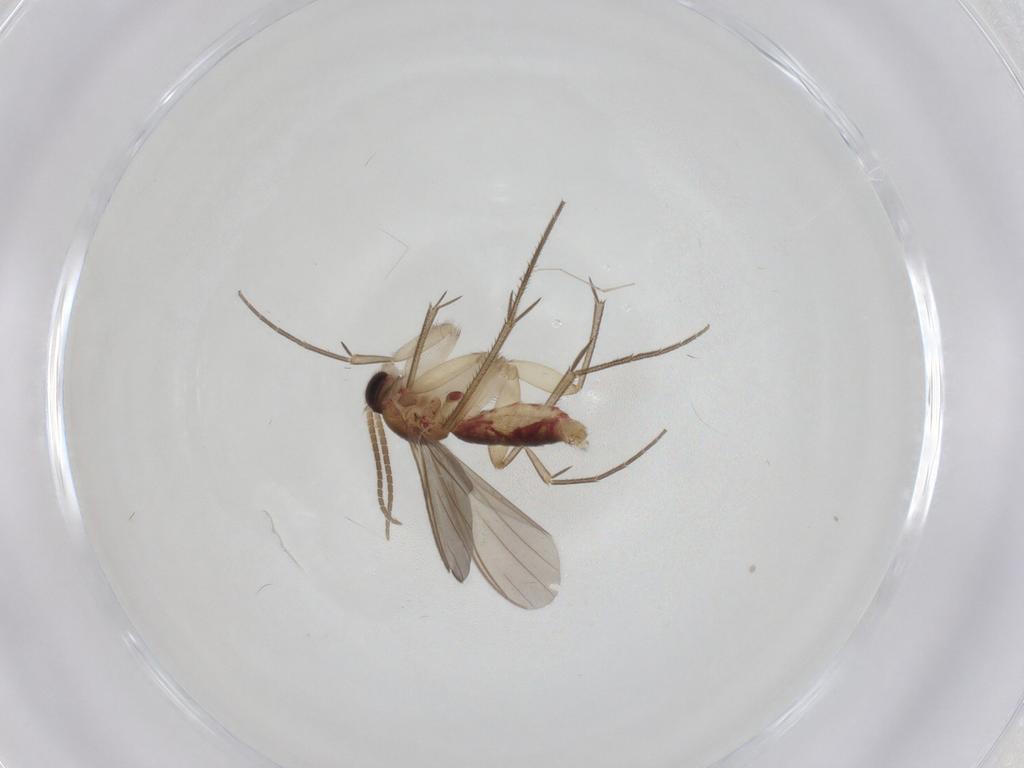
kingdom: Animalia
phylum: Arthropoda
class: Insecta
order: Diptera
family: Mycetophilidae
